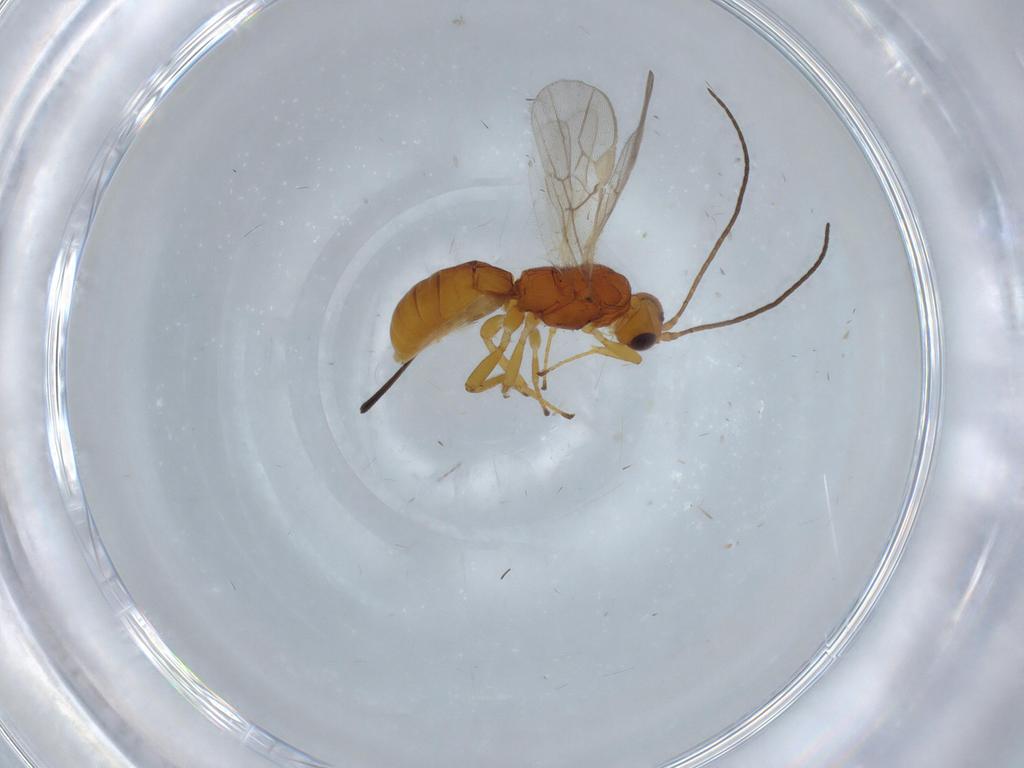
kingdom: Animalia
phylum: Arthropoda
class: Insecta
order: Hymenoptera
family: Braconidae
